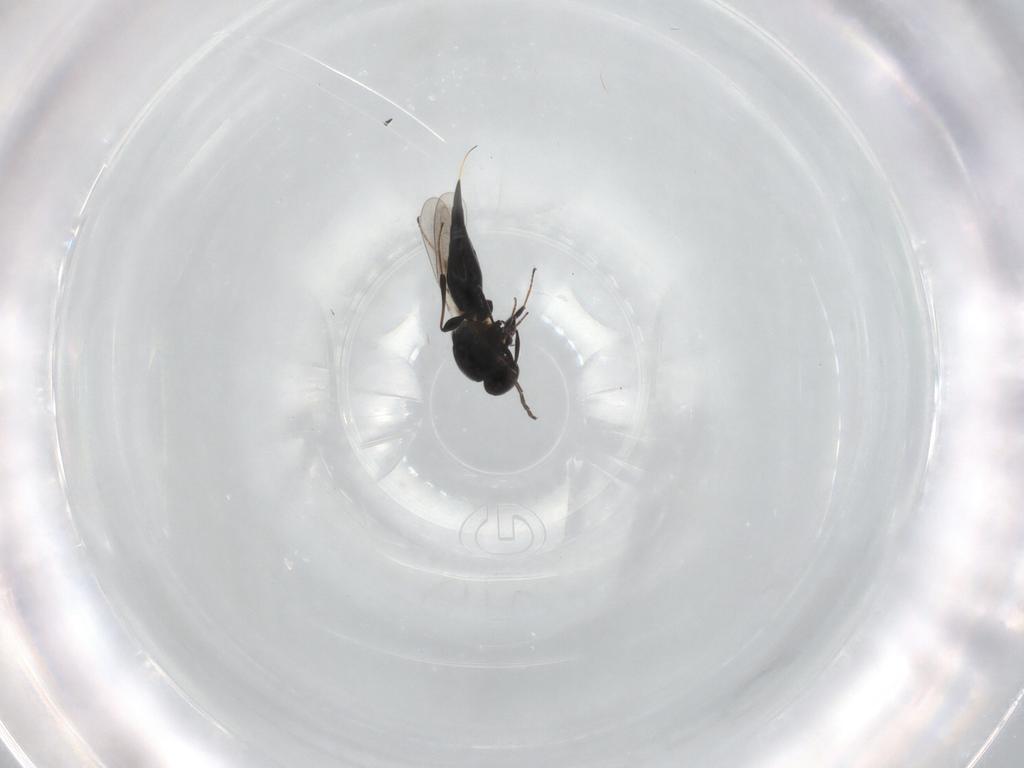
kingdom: Animalia
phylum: Arthropoda
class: Insecta
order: Hymenoptera
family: Platygastridae
